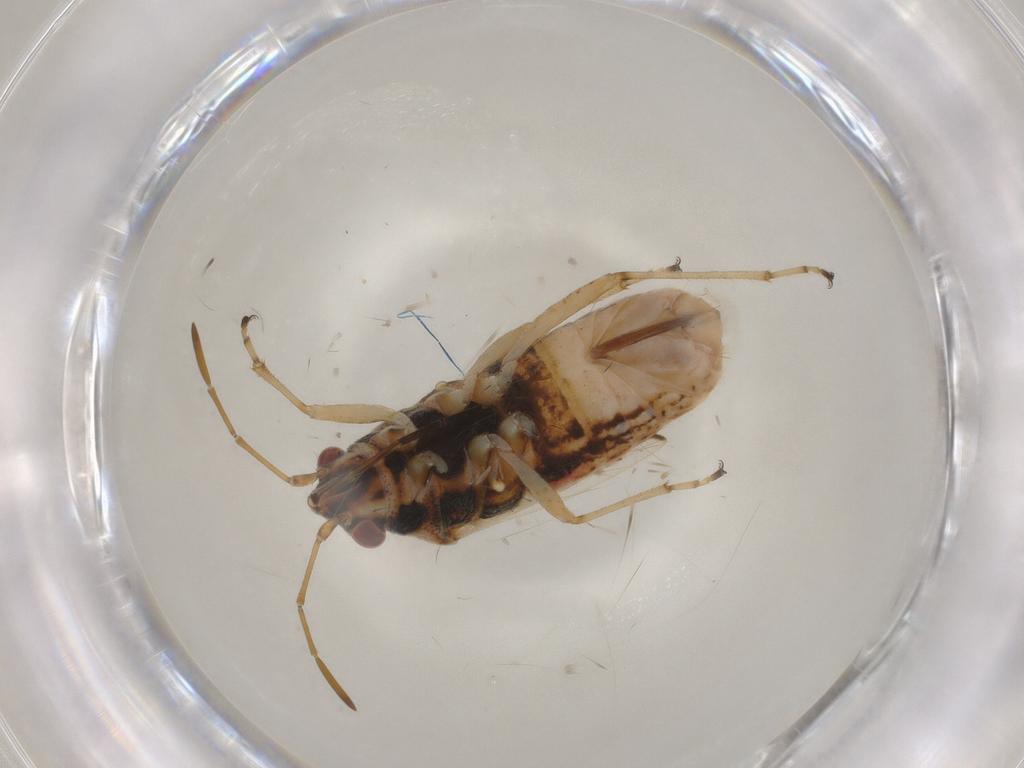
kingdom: Animalia
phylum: Arthropoda
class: Insecta
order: Hemiptera
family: Lygaeidae
